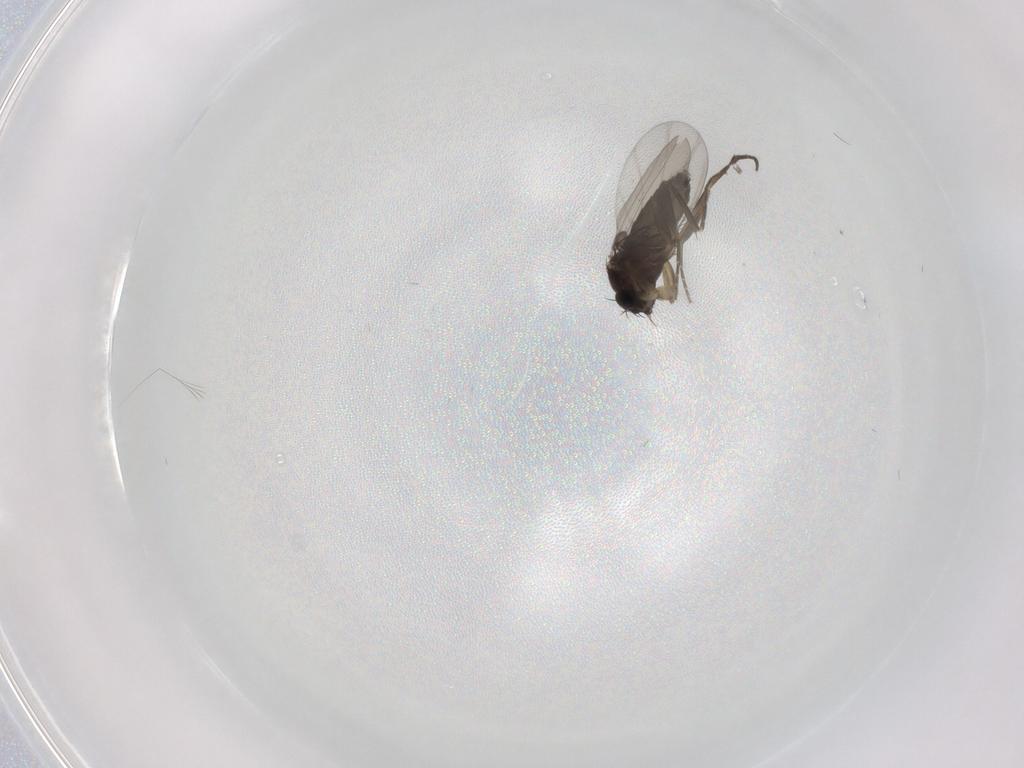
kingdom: Animalia
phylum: Arthropoda
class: Insecta
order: Diptera
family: Phoridae
